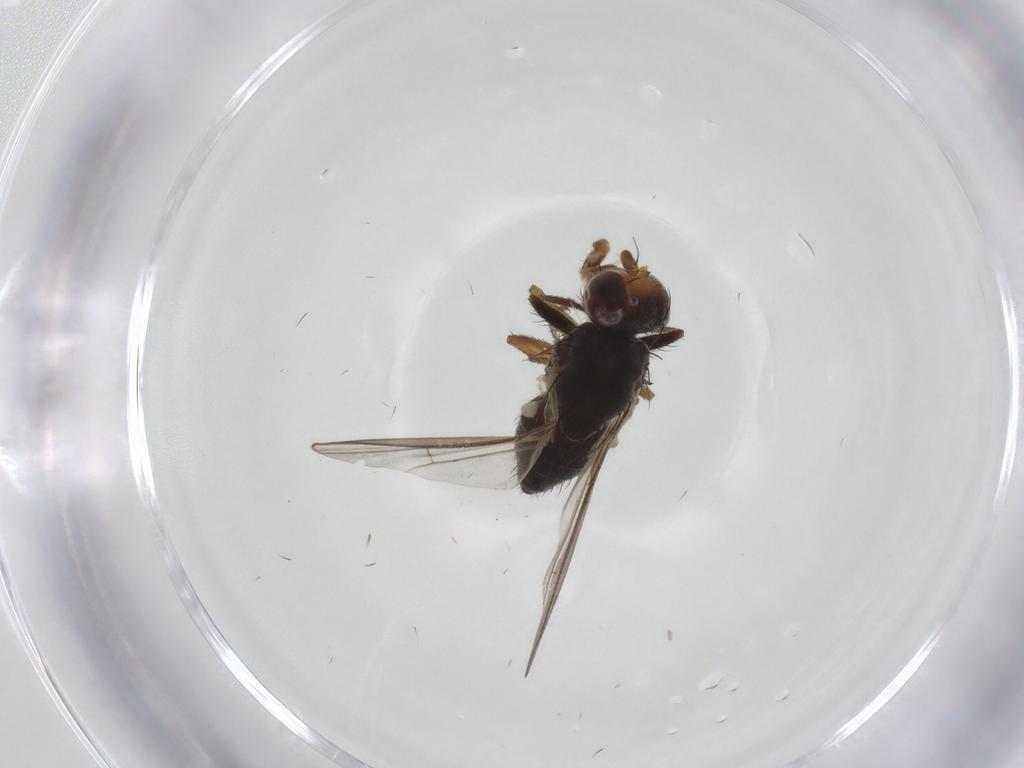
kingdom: Animalia
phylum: Arthropoda
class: Insecta
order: Diptera
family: Heleomyzidae
